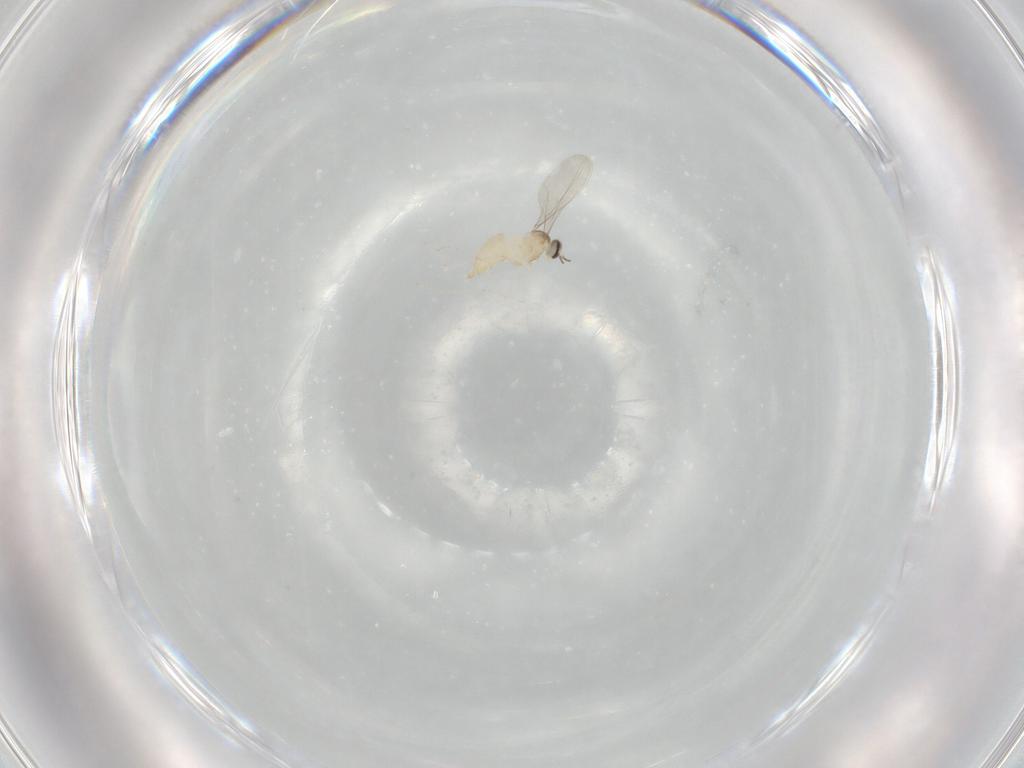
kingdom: Animalia
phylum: Arthropoda
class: Insecta
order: Diptera
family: Cecidomyiidae
